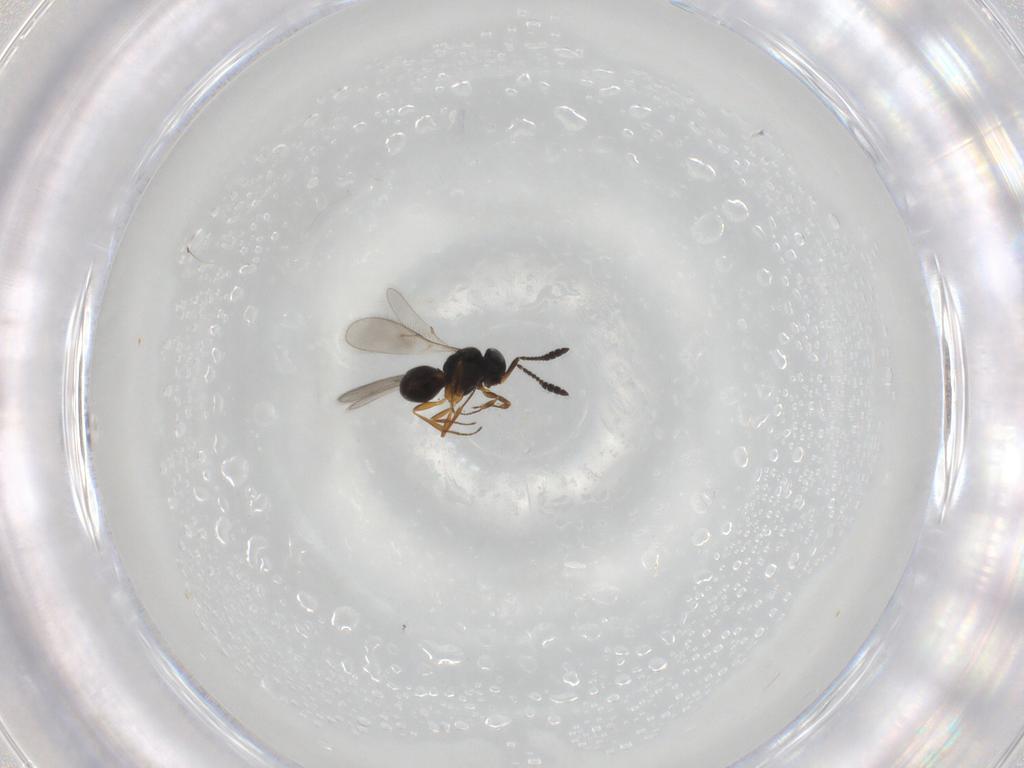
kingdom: Animalia
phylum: Arthropoda
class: Insecta
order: Hymenoptera
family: Scelionidae
